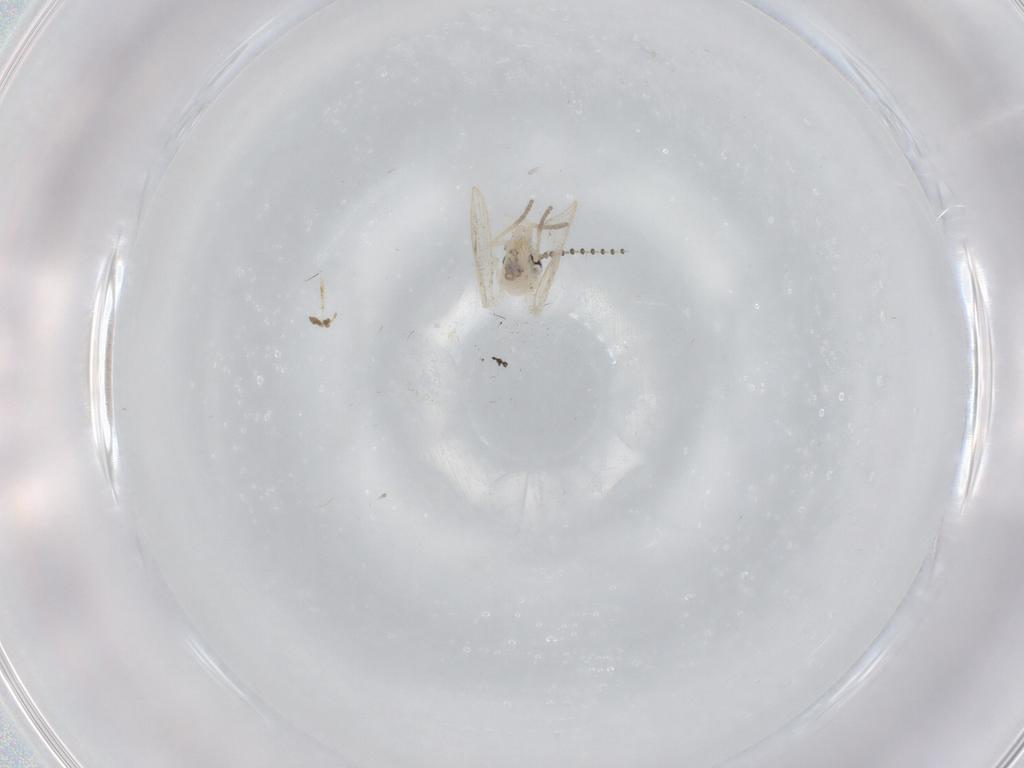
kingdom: Animalia
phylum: Arthropoda
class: Insecta
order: Diptera
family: Psychodidae
